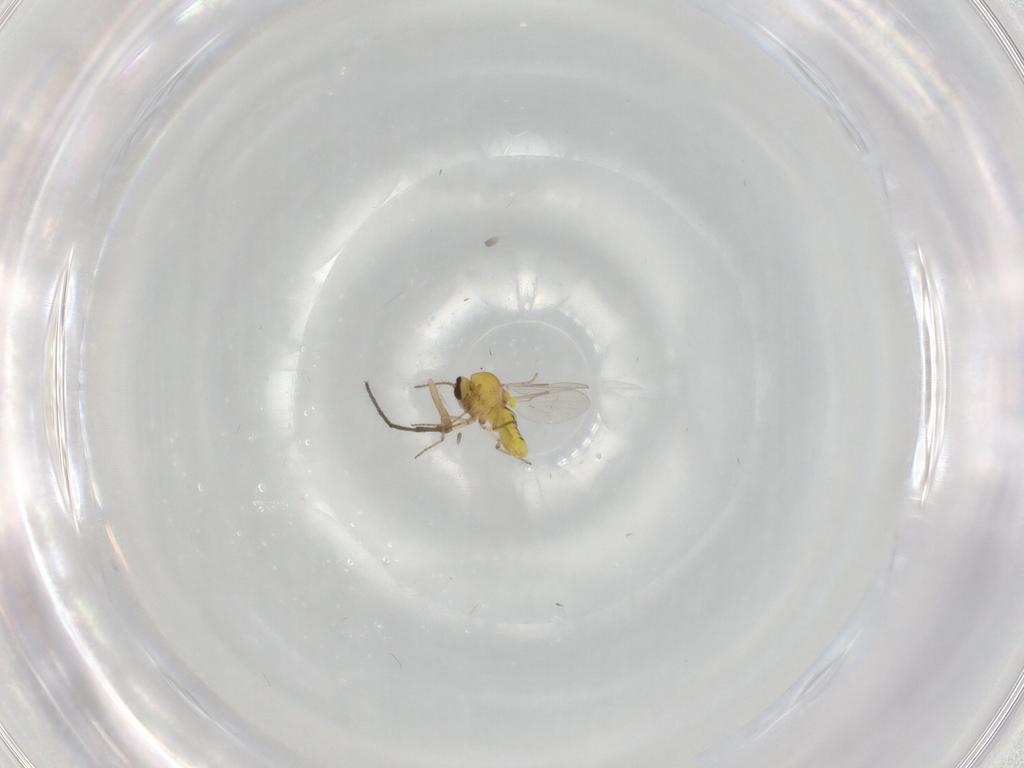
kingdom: Animalia
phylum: Arthropoda
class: Insecta
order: Diptera
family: Ceratopogonidae
